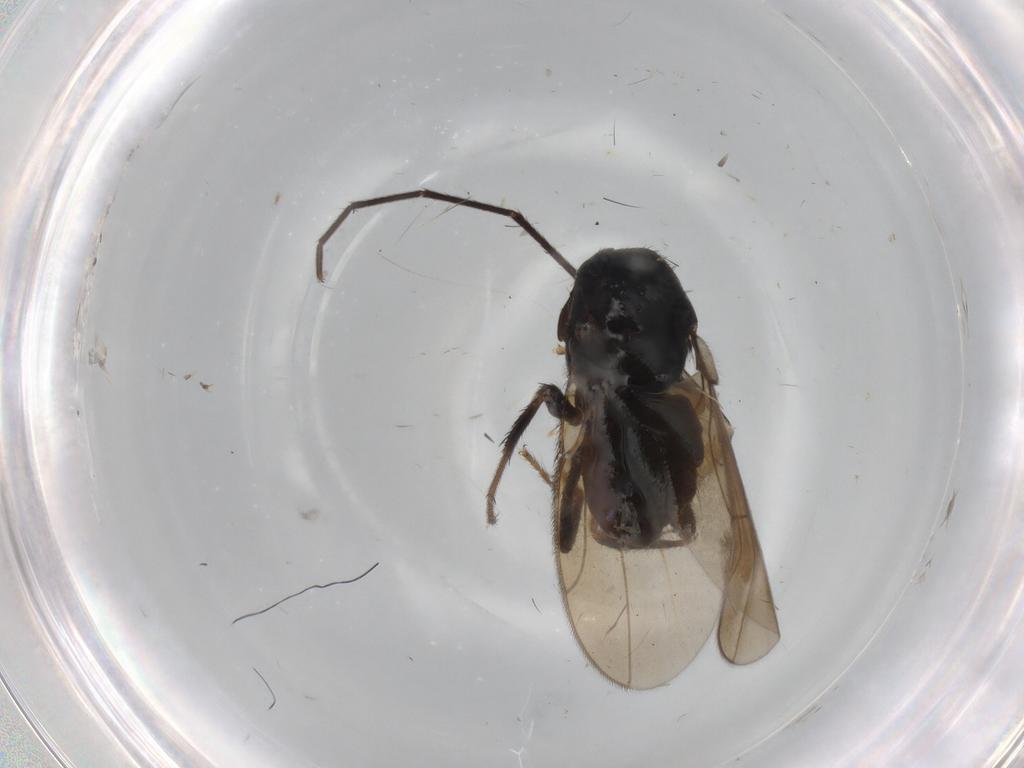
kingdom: Animalia
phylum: Arthropoda
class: Insecta
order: Diptera
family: Sphaeroceridae
